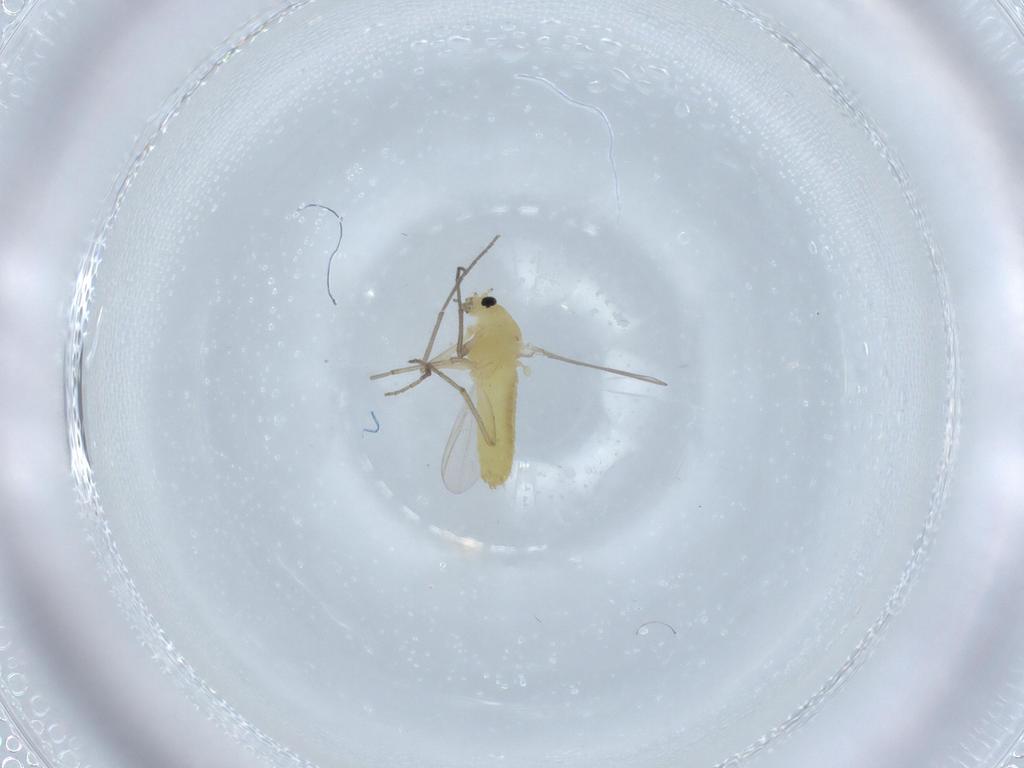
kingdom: Animalia
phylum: Arthropoda
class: Insecta
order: Diptera
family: Chironomidae
